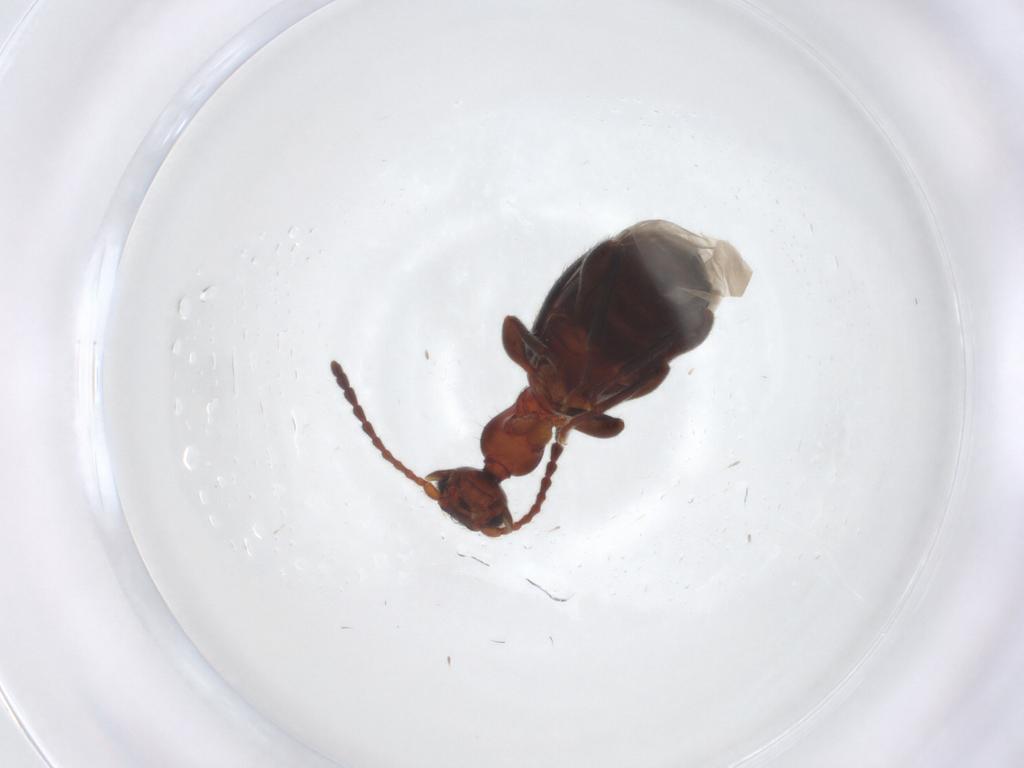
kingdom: Animalia
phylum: Arthropoda
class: Insecta
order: Coleoptera
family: Anthicidae
